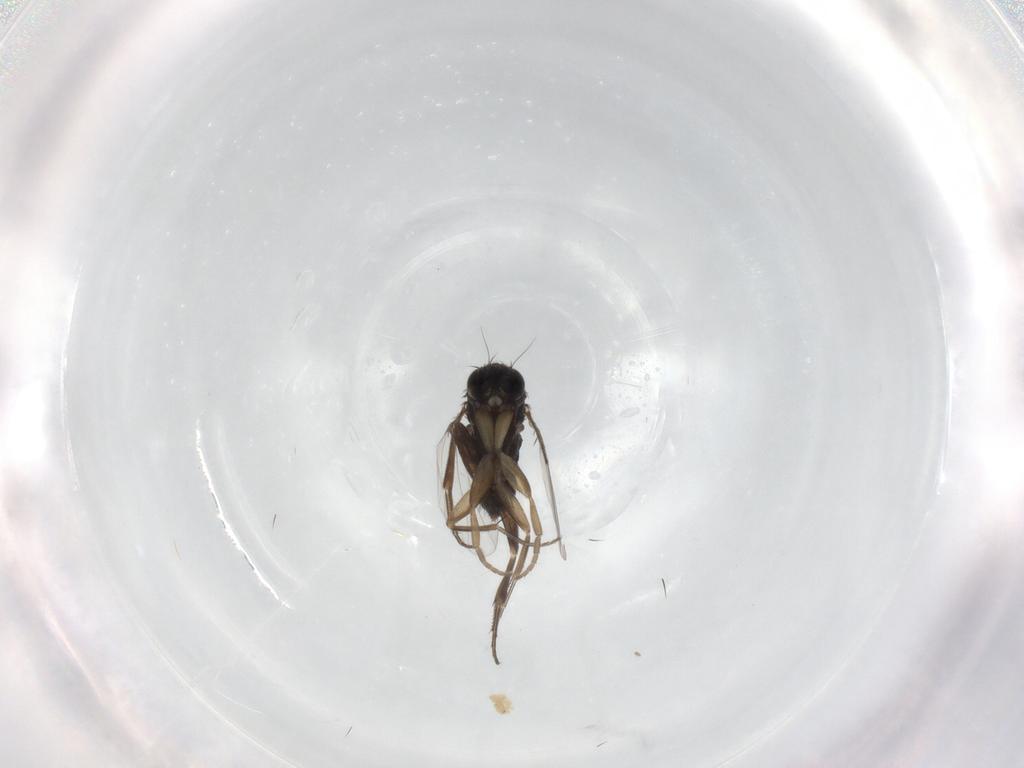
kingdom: Animalia
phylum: Arthropoda
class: Insecta
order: Diptera
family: Phoridae
